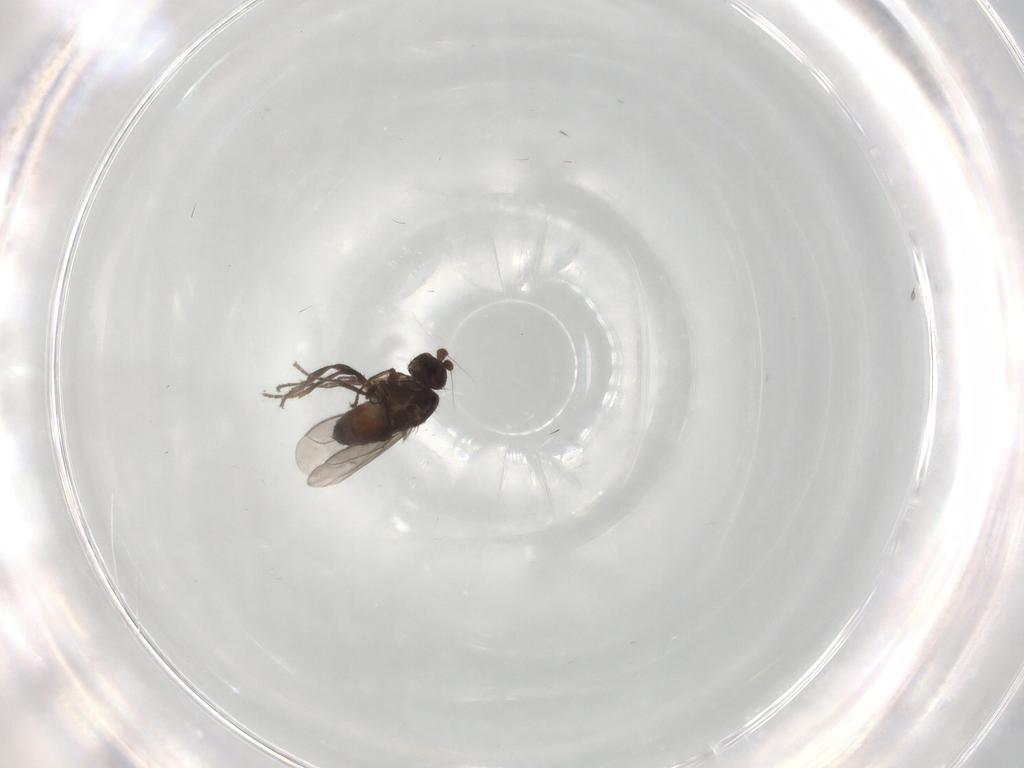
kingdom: Animalia
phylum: Arthropoda
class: Insecta
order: Diptera
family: Sphaeroceridae
